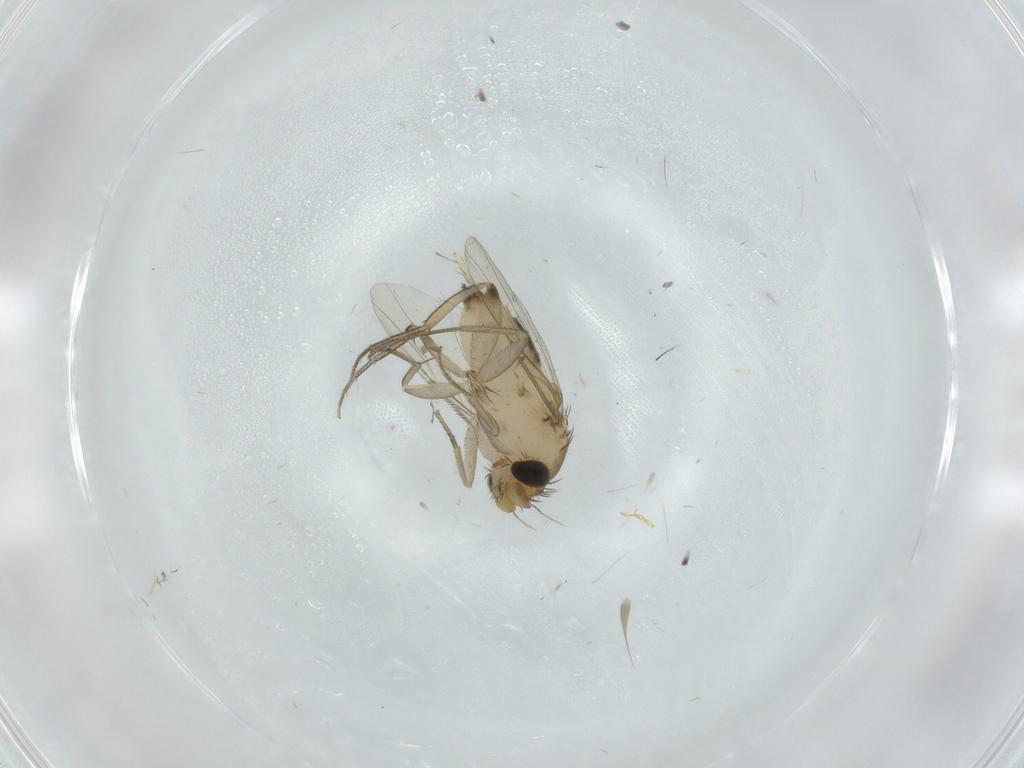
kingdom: Animalia
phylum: Arthropoda
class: Insecta
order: Diptera
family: Phoridae
